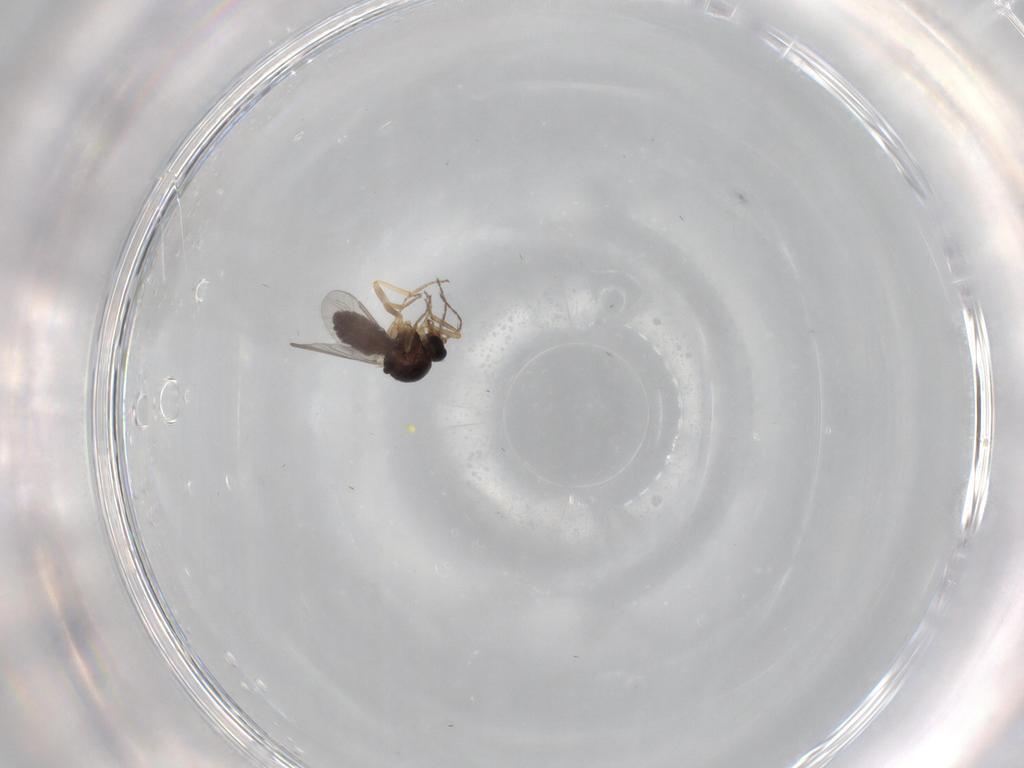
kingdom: Animalia
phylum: Arthropoda
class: Insecta
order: Diptera
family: Ceratopogonidae
